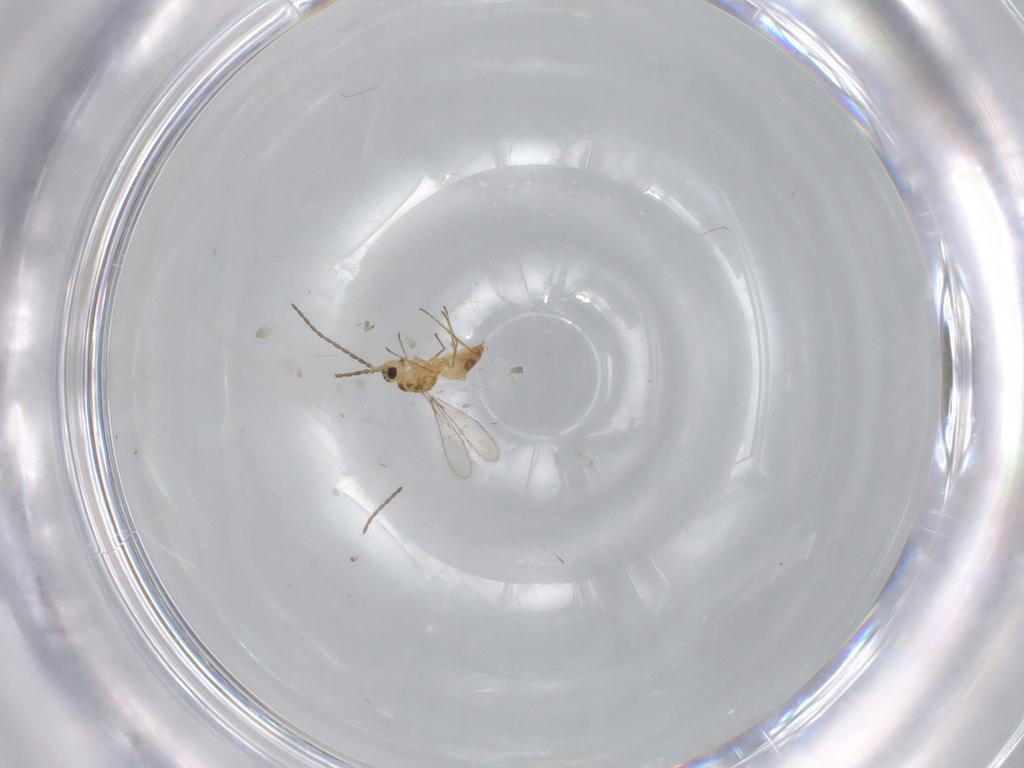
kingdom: Animalia
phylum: Arthropoda
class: Insecta
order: Hymenoptera
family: Mymaridae
